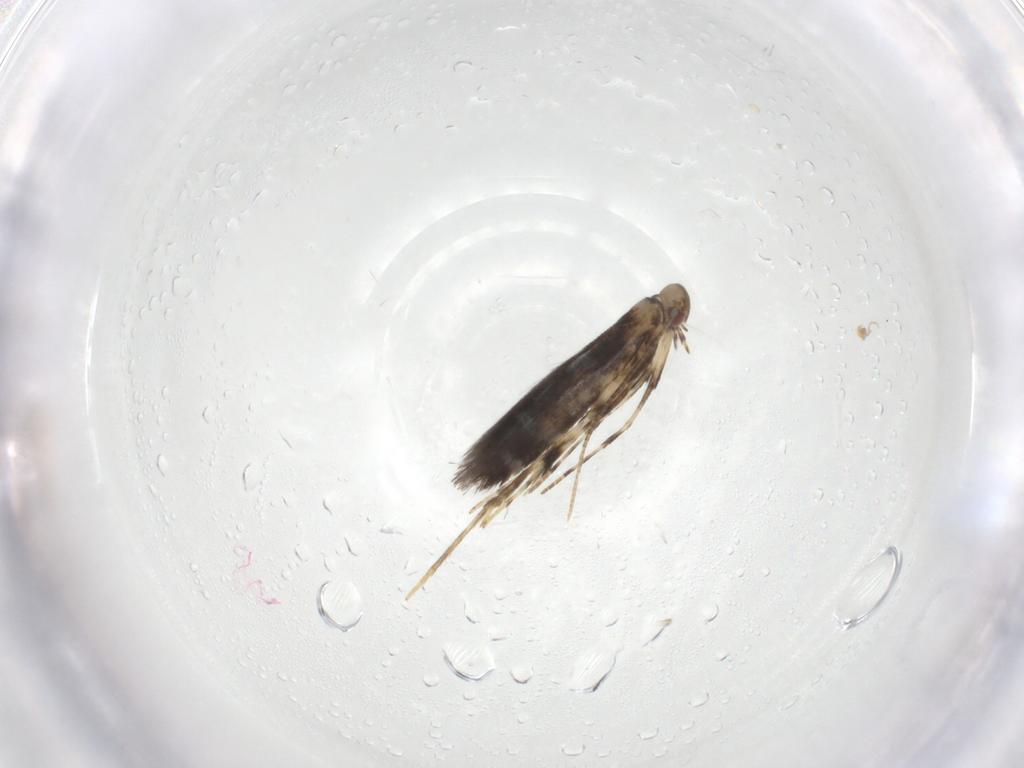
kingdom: Animalia
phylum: Arthropoda
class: Insecta
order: Lepidoptera
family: Gracillariidae
